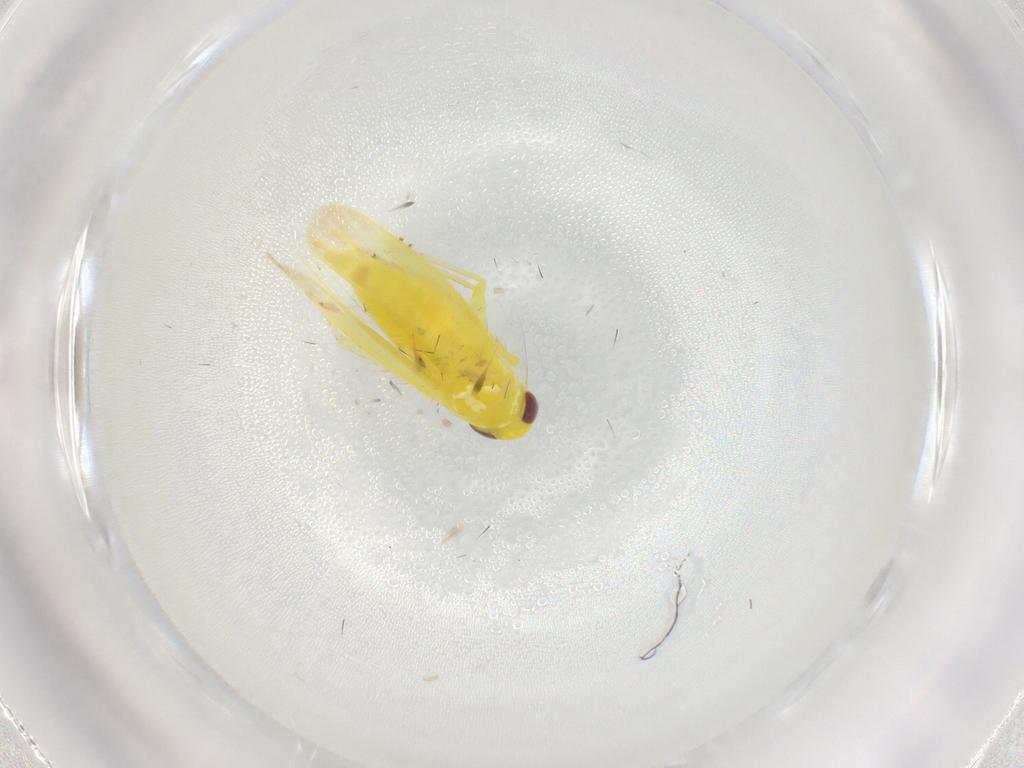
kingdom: Animalia
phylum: Arthropoda
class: Insecta
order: Hemiptera
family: Cicadellidae
